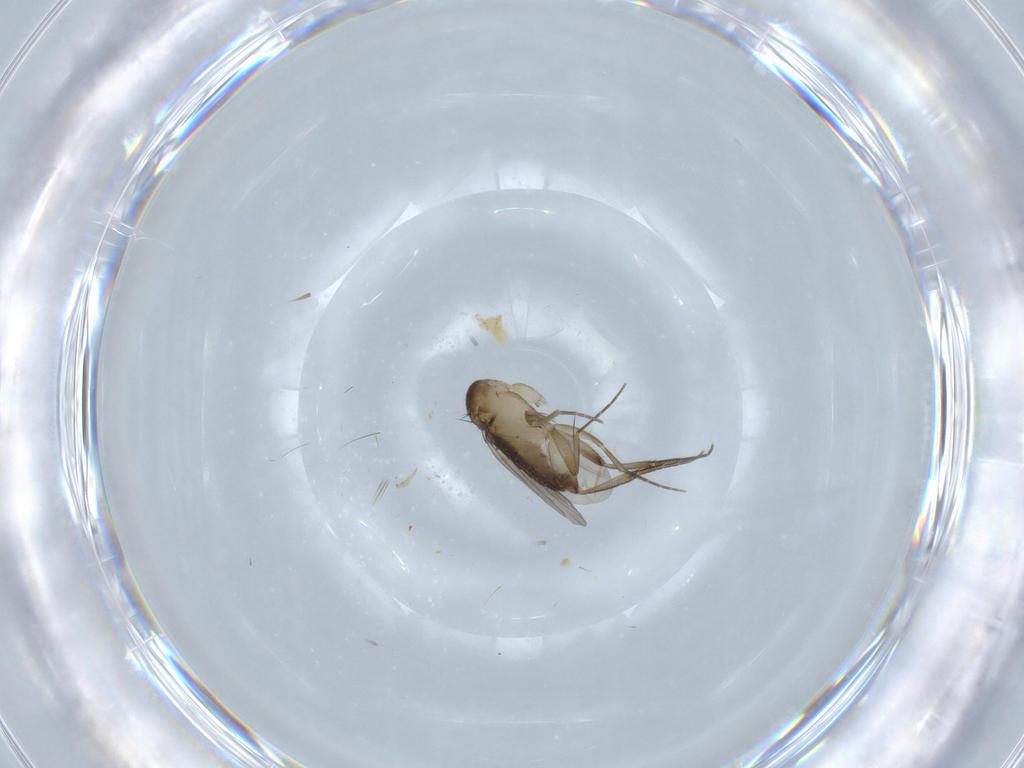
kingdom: Animalia
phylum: Arthropoda
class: Insecta
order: Diptera
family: Phoridae
